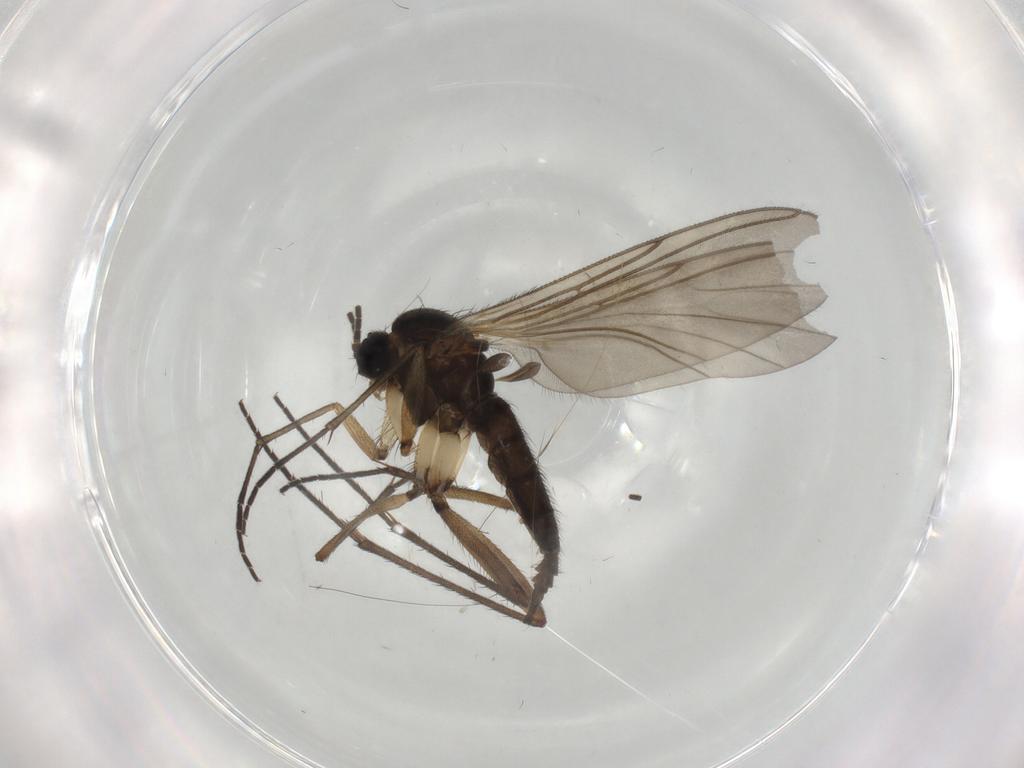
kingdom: Animalia
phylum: Arthropoda
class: Insecta
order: Diptera
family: Sciaridae
